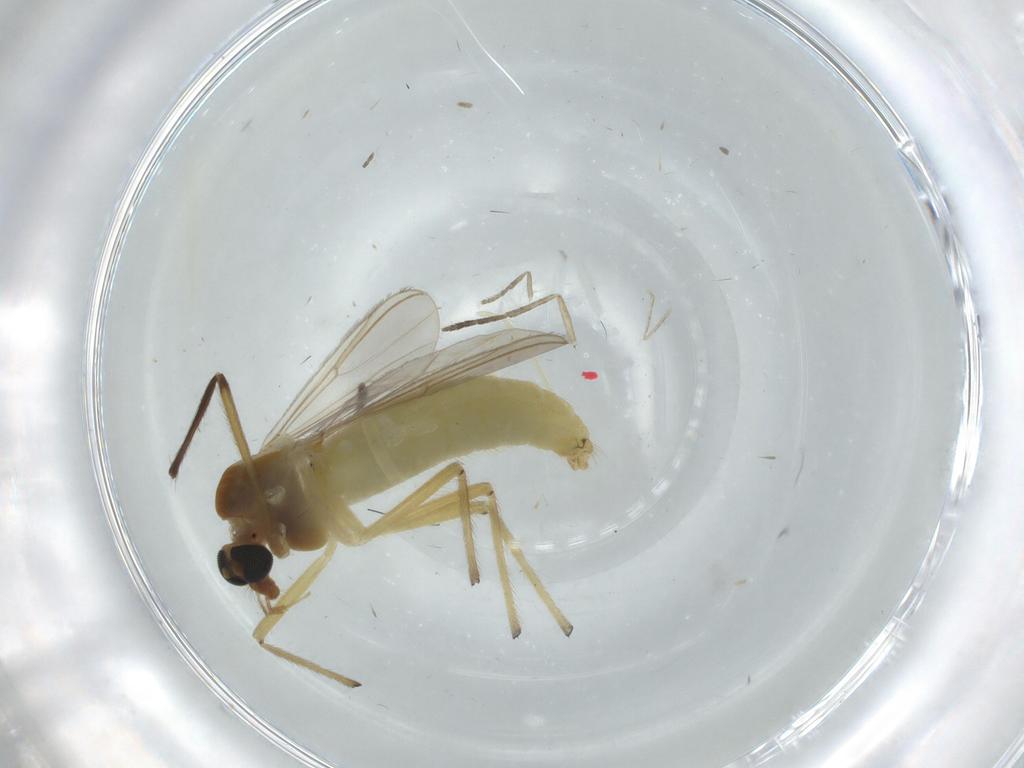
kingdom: Animalia
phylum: Arthropoda
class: Insecta
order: Diptera
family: Chironomidae
